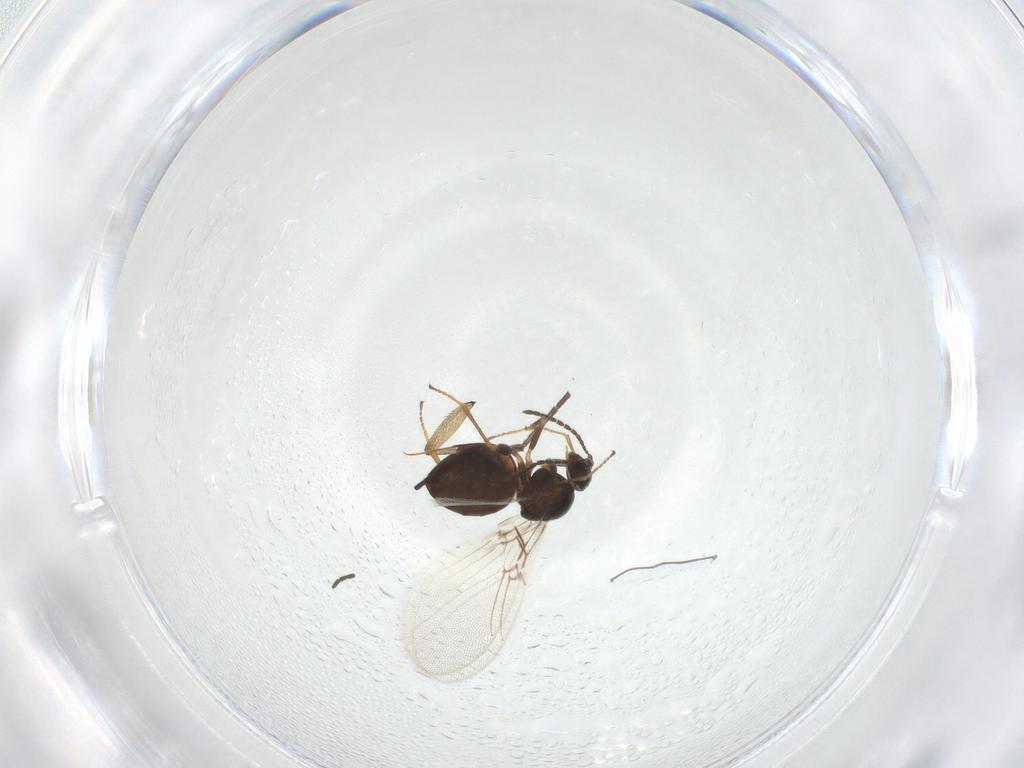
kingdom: Animalia
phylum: Arthropoda
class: Insecta
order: Hymenoptera
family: Cynipidae
